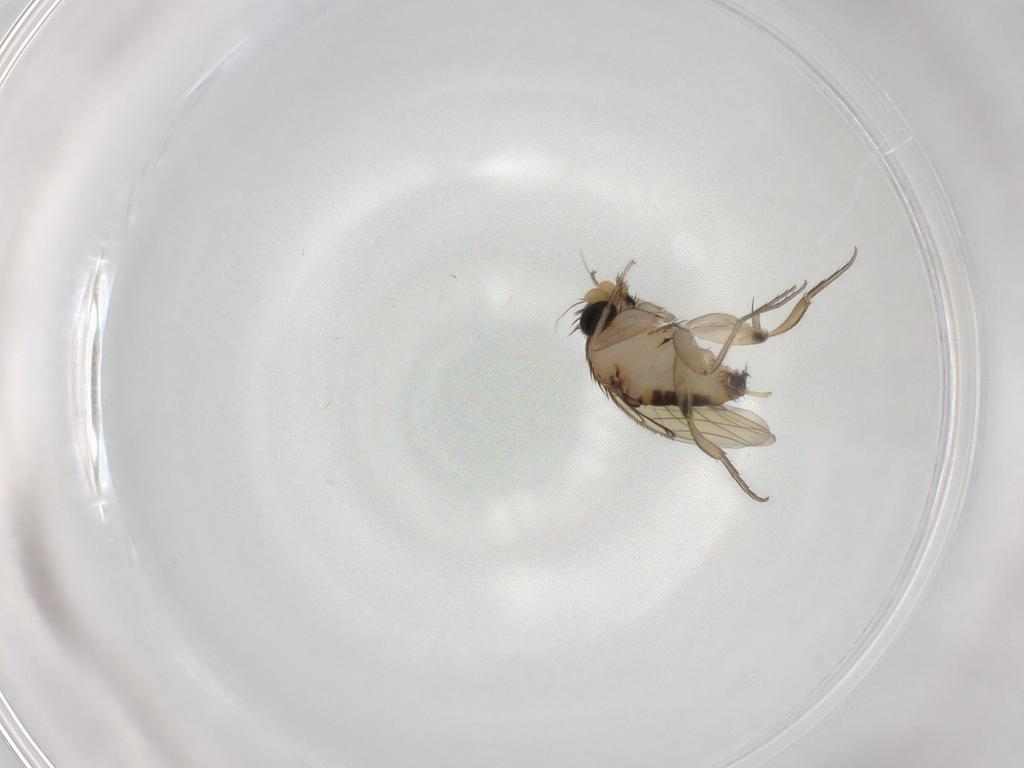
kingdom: Animalia
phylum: Arthropoda
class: Insecta
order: Diptera
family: Phoridae
